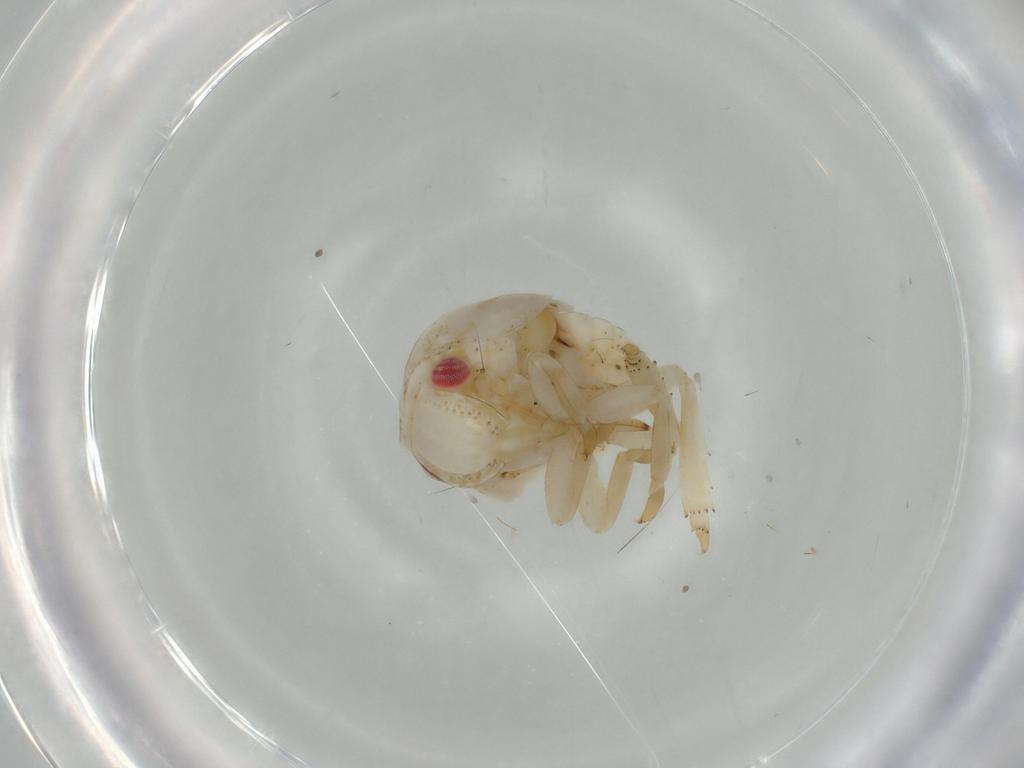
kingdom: Animalia
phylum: Arthropoda
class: Insecta
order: Hemiptera
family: Acanaloniidae
